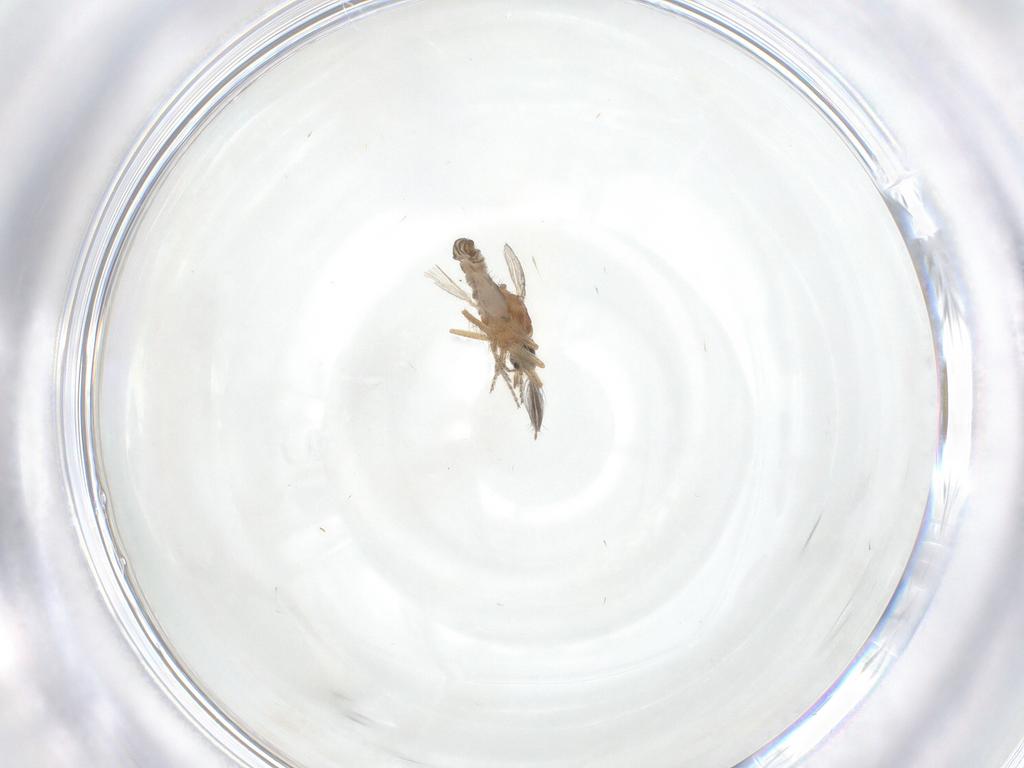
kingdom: Animalia
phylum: Arthropoda
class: Insecta
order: Diptera
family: Ceratopogonidae
